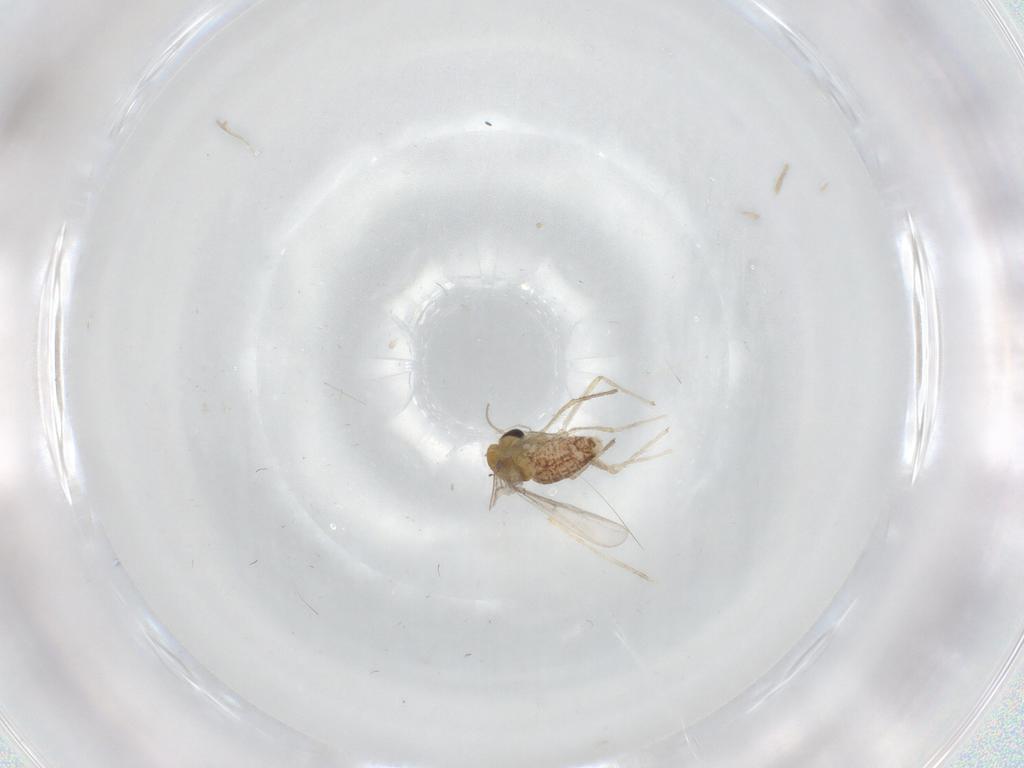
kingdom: Animalia
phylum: Arthropoda
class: Insecta
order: Diptera
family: Chironomidae
